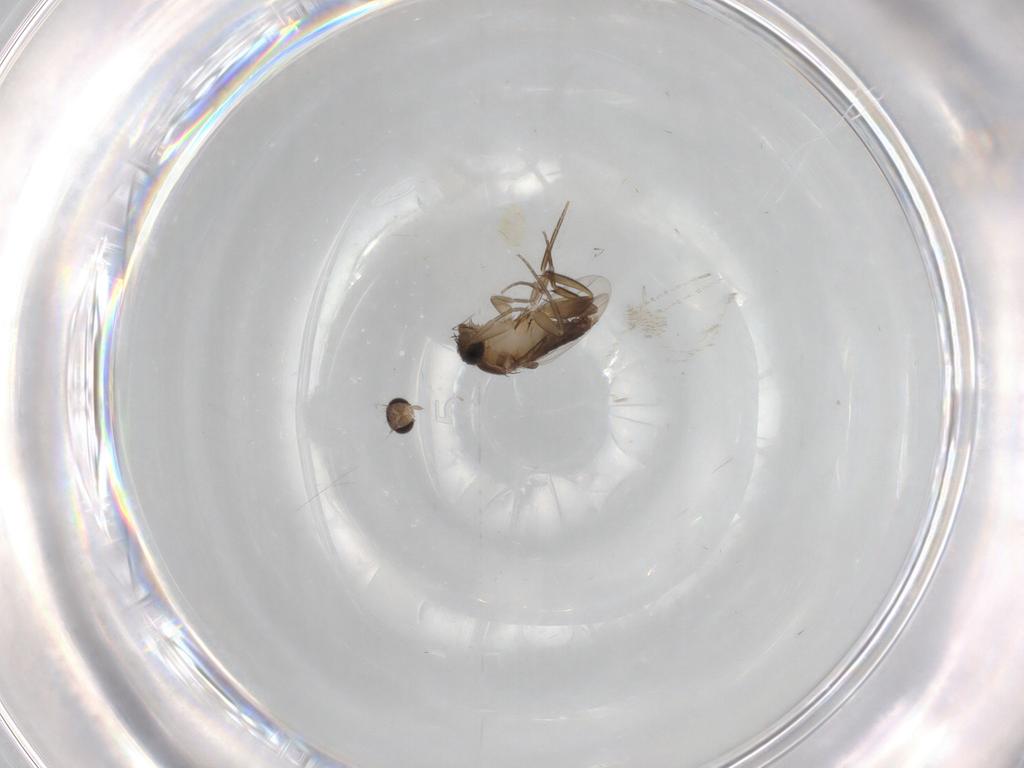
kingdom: Animalia
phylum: Arthropoda
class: Insecta
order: Diptera
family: Phoridae
